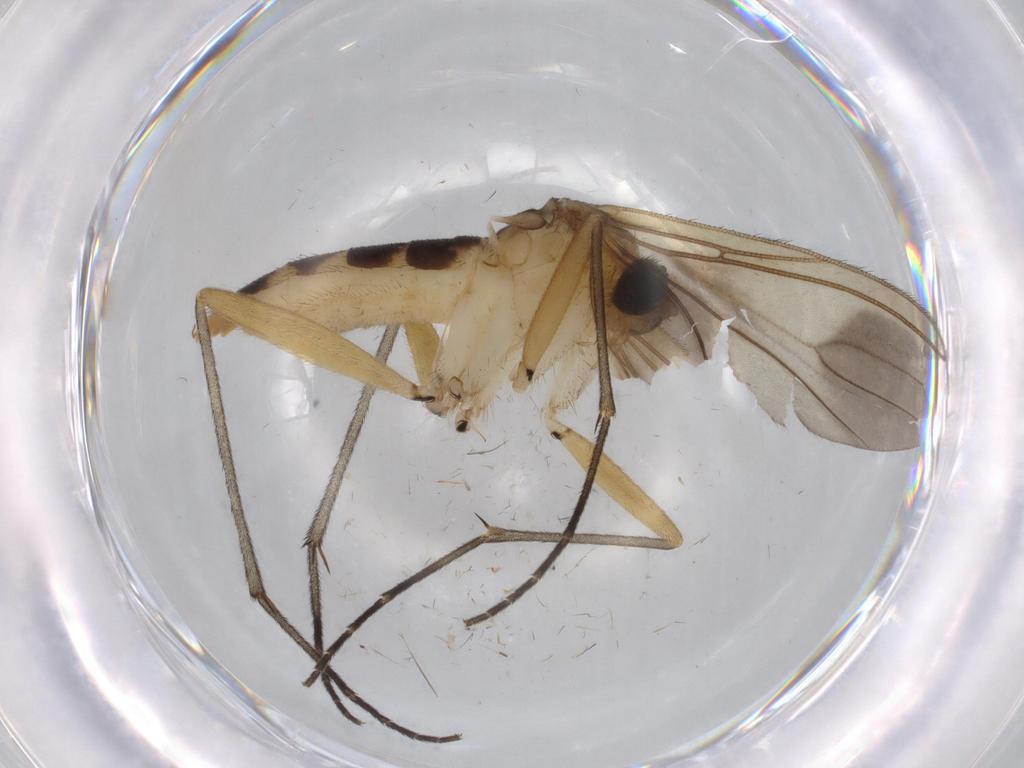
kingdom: Animalia
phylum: Arthropoda
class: Insecta
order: Diptera
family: Sciaridae
